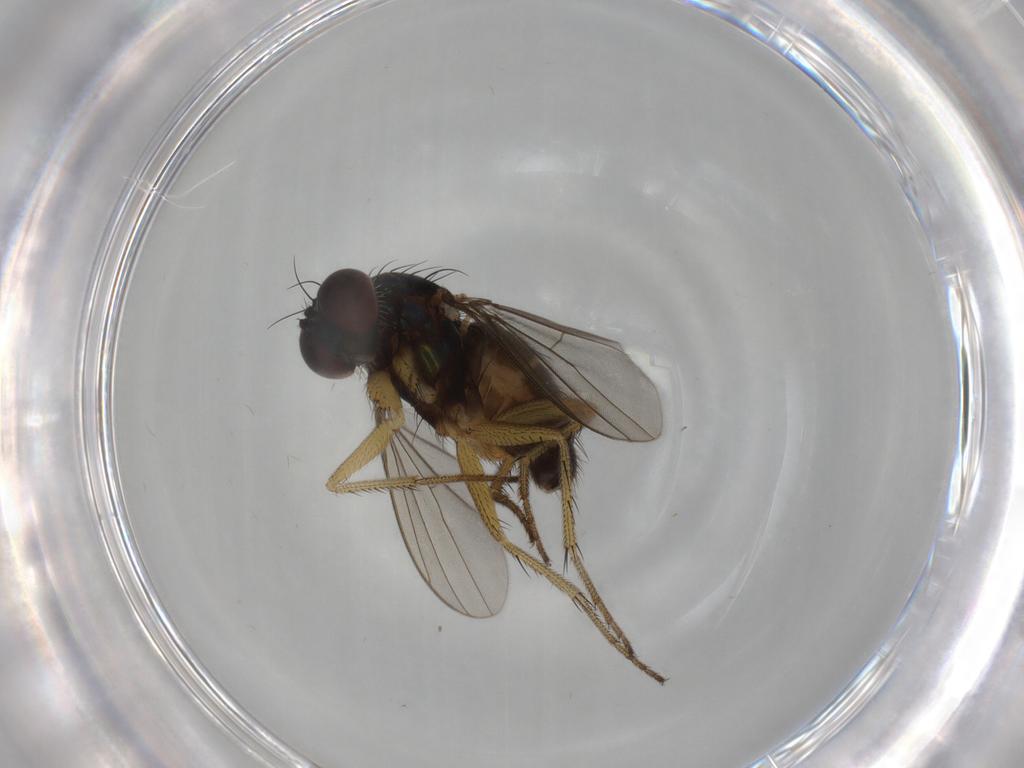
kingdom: Animalia
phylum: Arthropoda
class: Insecta
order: Diptera
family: Dolichopodidae
